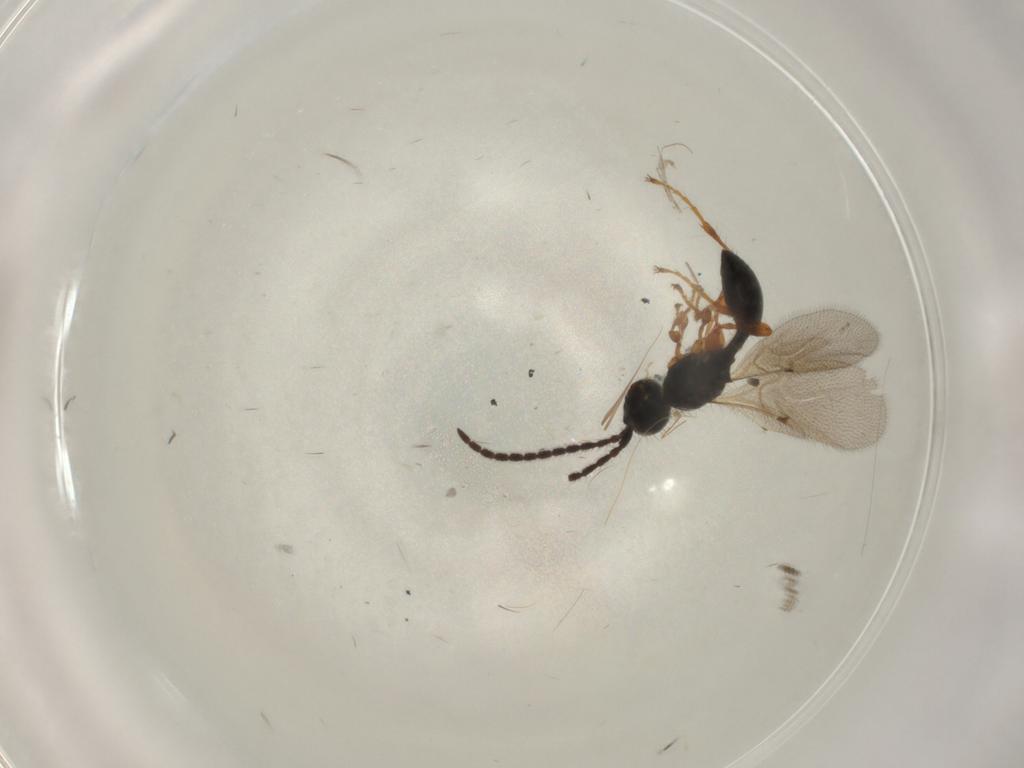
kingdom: Animalia
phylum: Arthropoda
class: Insecta
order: Hymenoptera
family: Diapriidae
